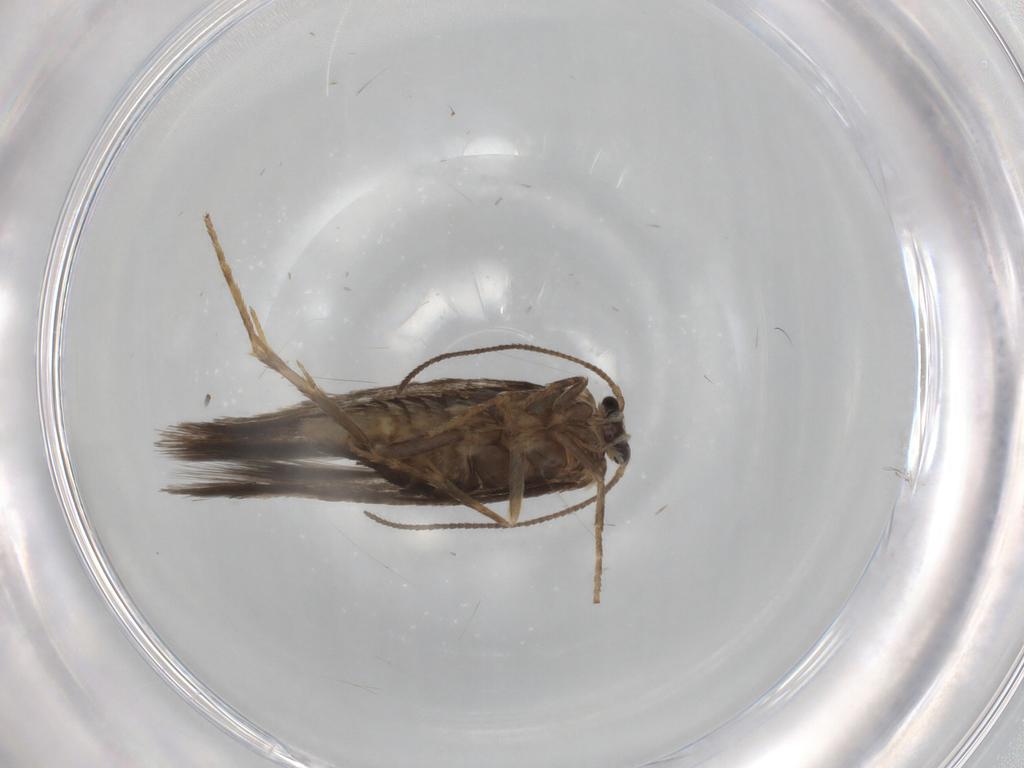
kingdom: Animalia
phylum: Arthropoda
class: Insecta
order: Lepidoptera
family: Nepticulidae
